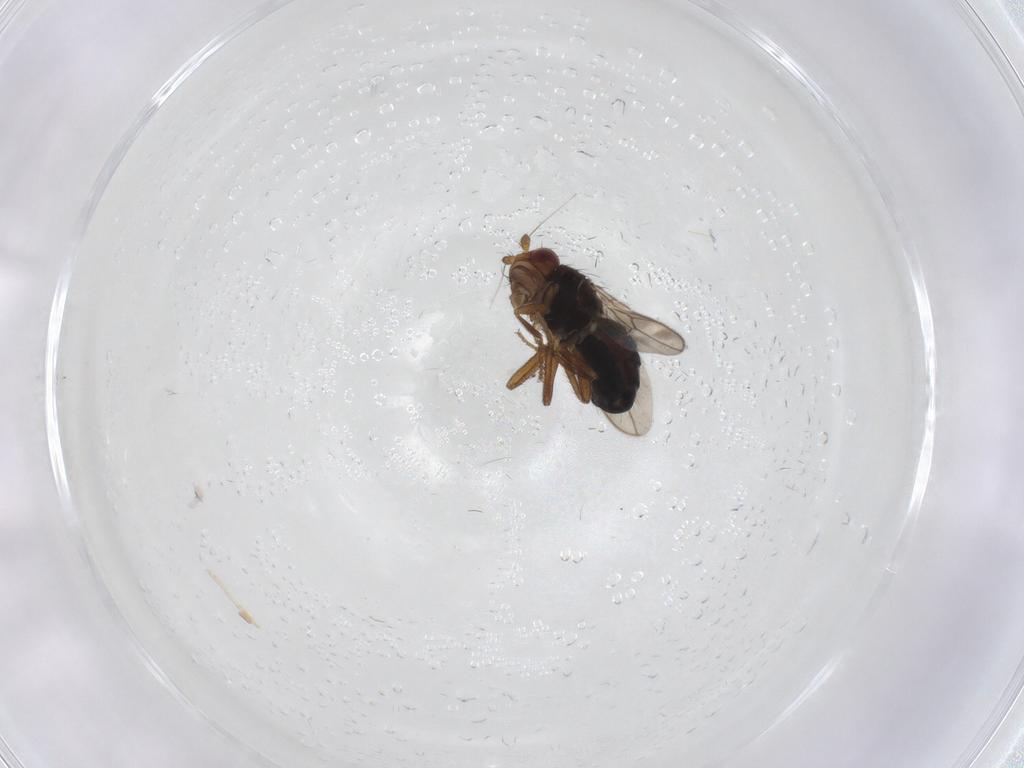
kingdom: Animalia
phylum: Arthropoda
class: Insecta
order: Diptera
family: Sphaeroceridae
